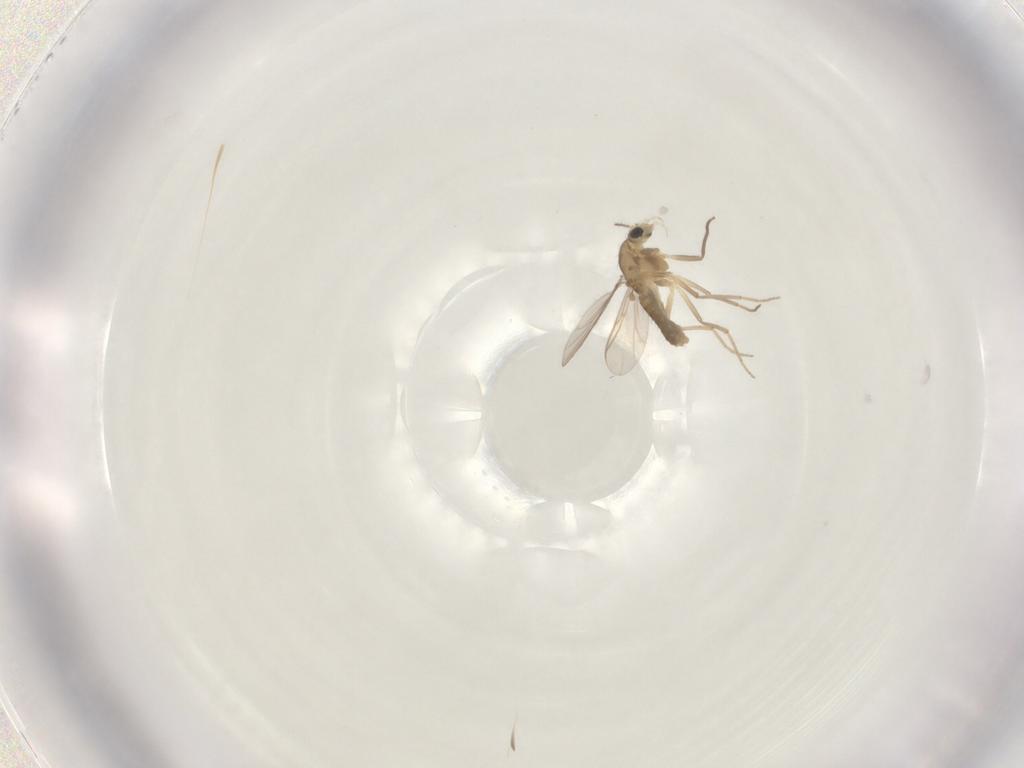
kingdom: Animalia
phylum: Arthropoda
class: Insecta
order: Diptera
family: Chironomidae
